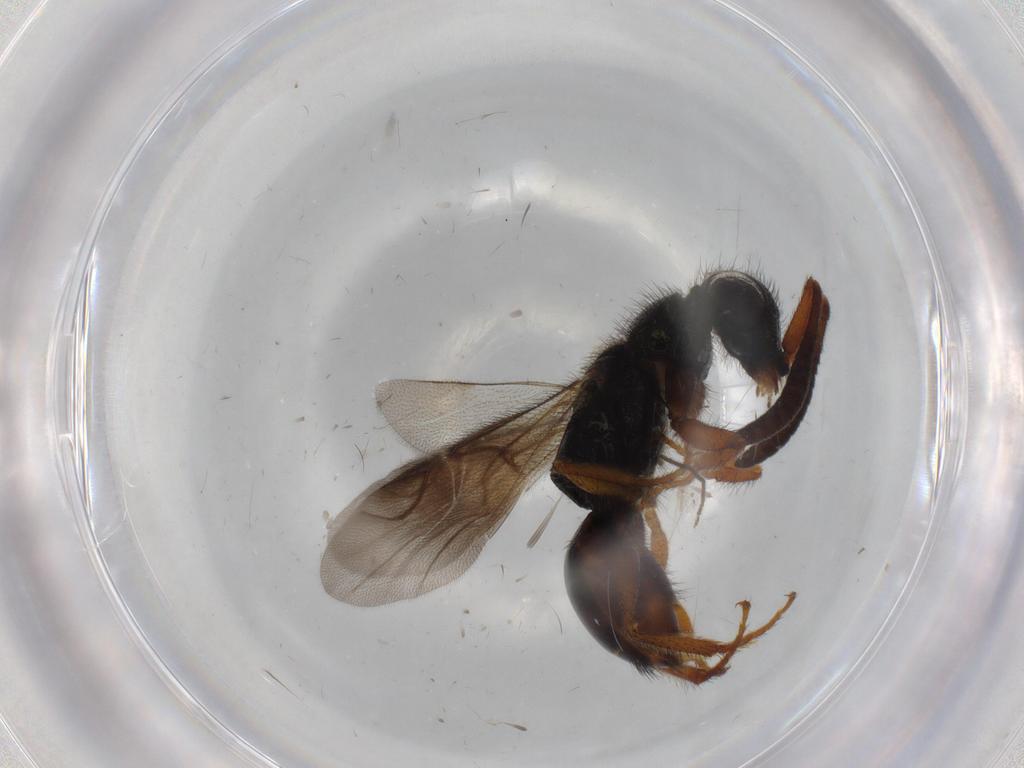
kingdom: Animalia
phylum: Arthropoda
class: Insecta
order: Hymenoptera
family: Chrysididae
